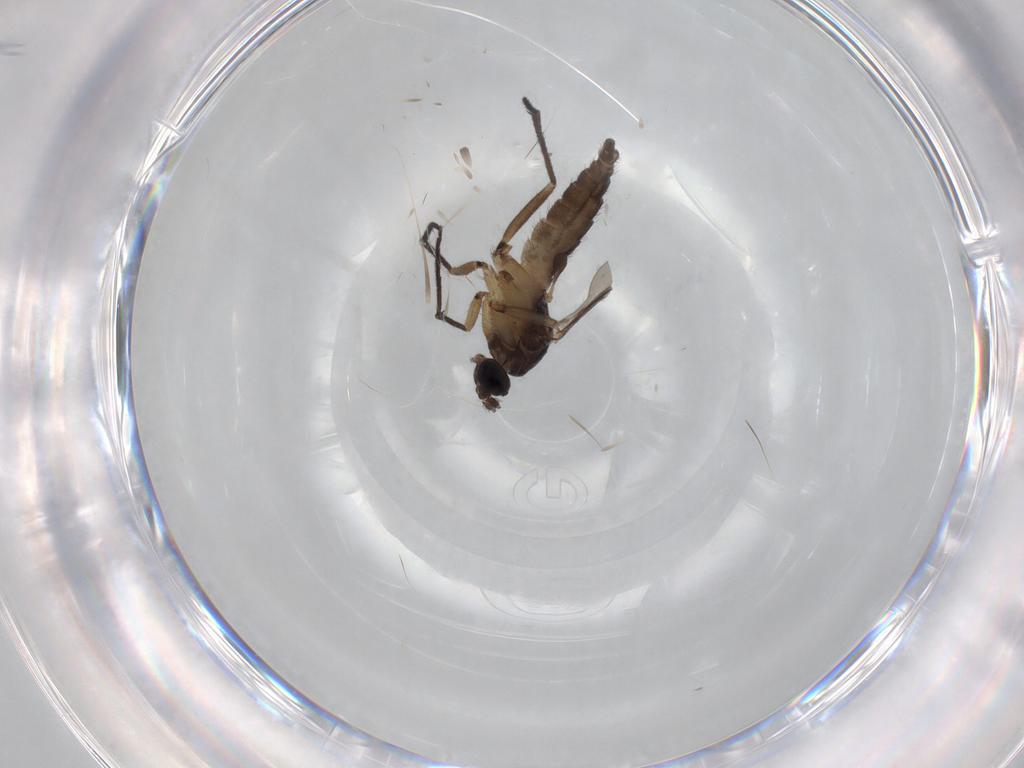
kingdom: Animalia
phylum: Arthropoda
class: Insecta
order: Diptera
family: Sciaridae
